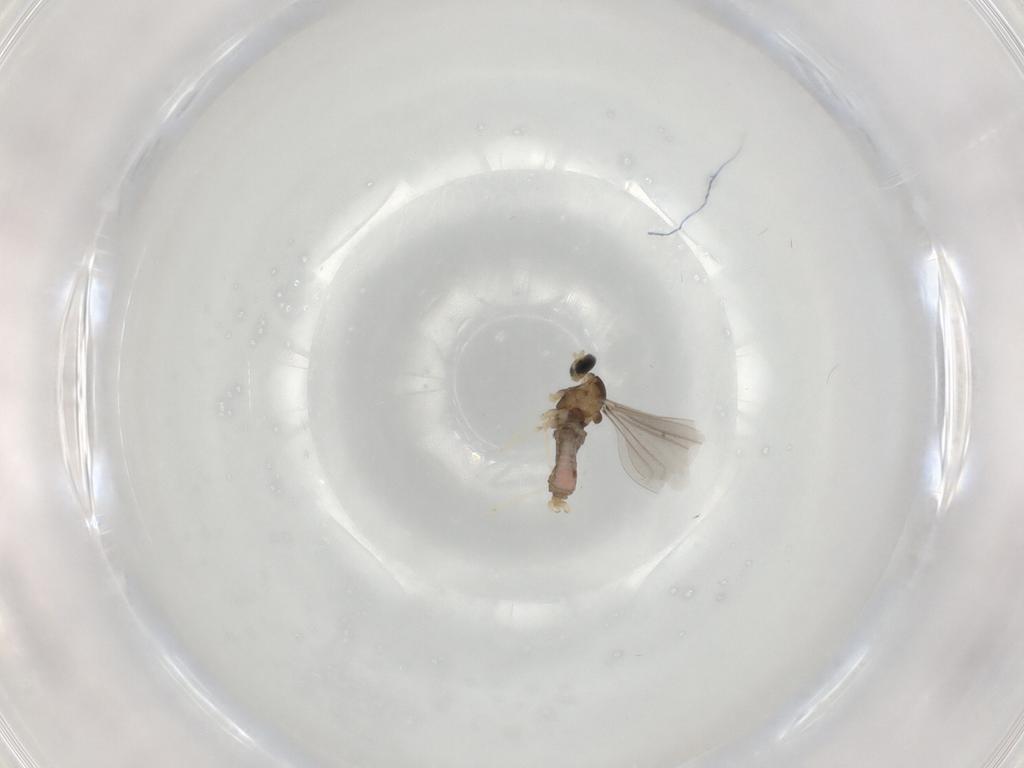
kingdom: Animalia
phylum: Arthropoda
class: Insecta
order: Diptera
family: Cecidomyiidae
